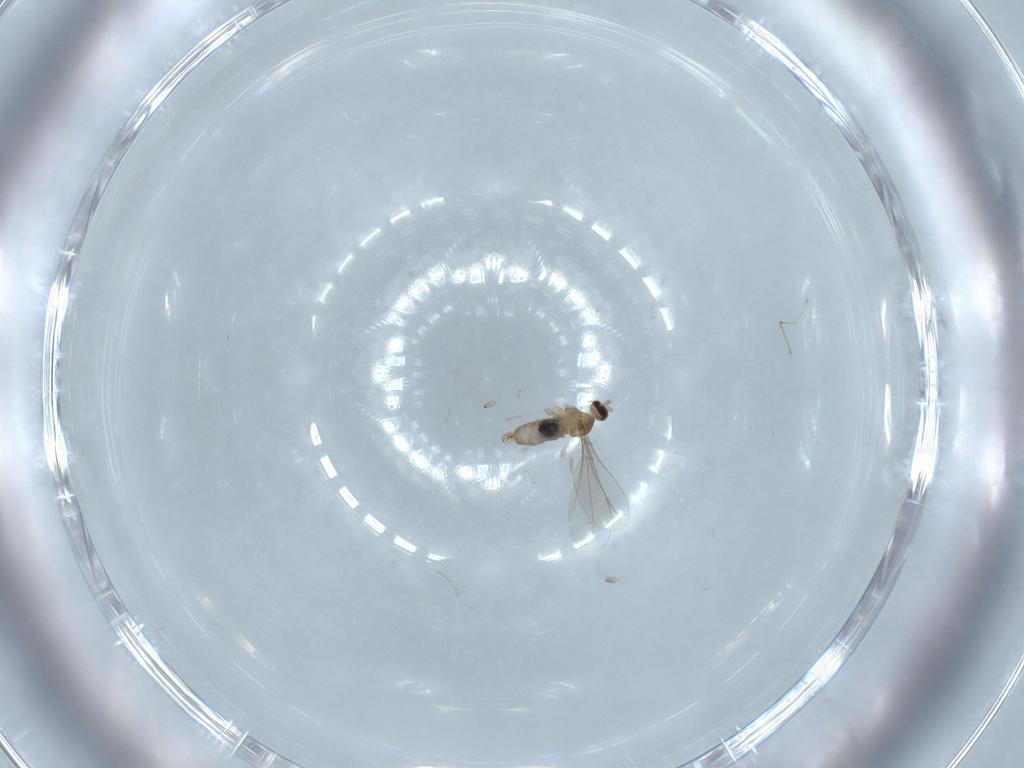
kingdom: Animalia
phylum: Arthropoda
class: Insecta
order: Diptera
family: Cecidomyiidae
